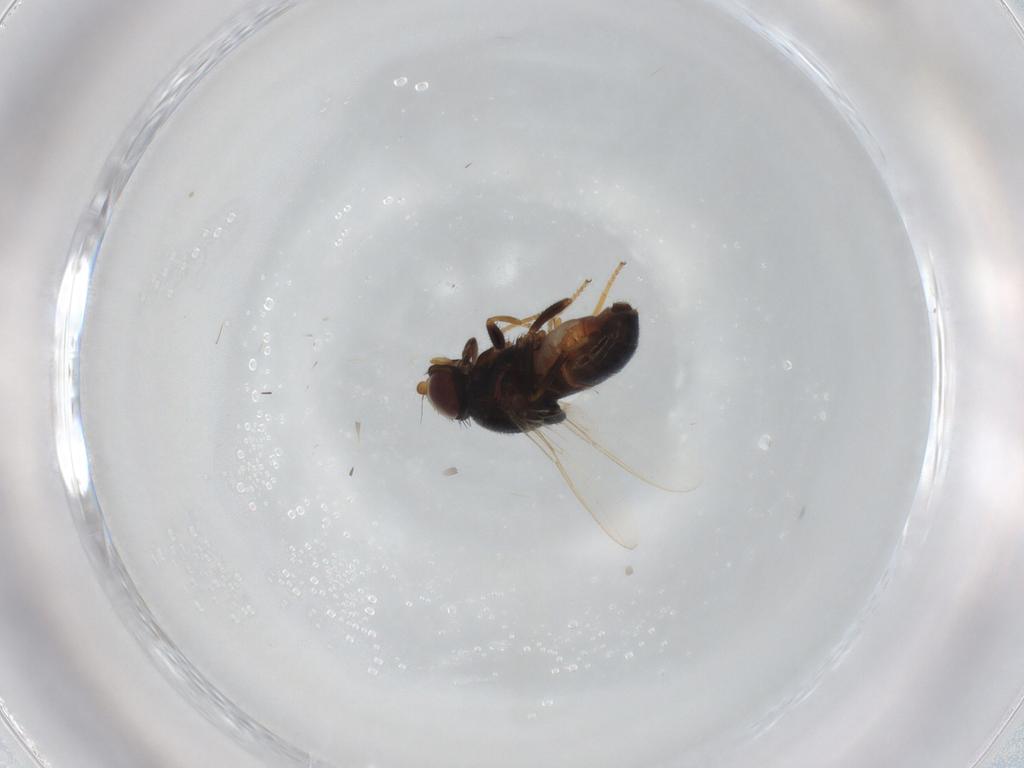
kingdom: Animalia
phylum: Arthropoda
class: Insecta
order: Diptera
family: Chloropidae
